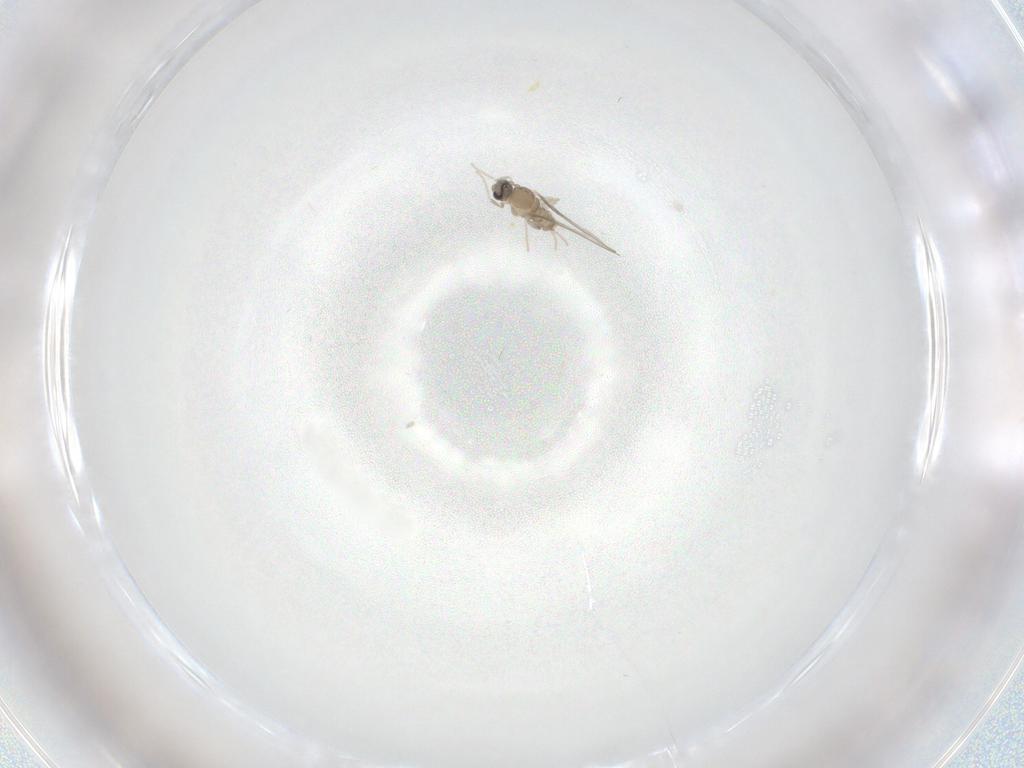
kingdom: Animalia
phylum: Arthropoda
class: Insecta
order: Diptera
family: Cecidomyiidae
